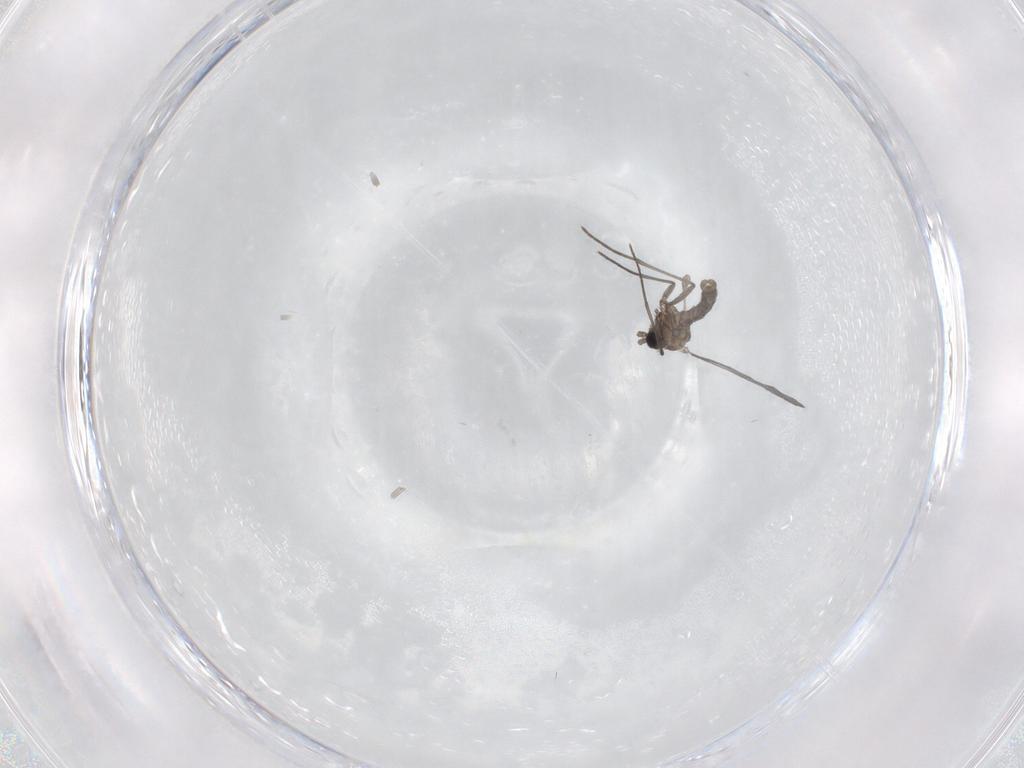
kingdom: Animalia
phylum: Arthropoda
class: Insecta
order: Diptera
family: Sciaridae
